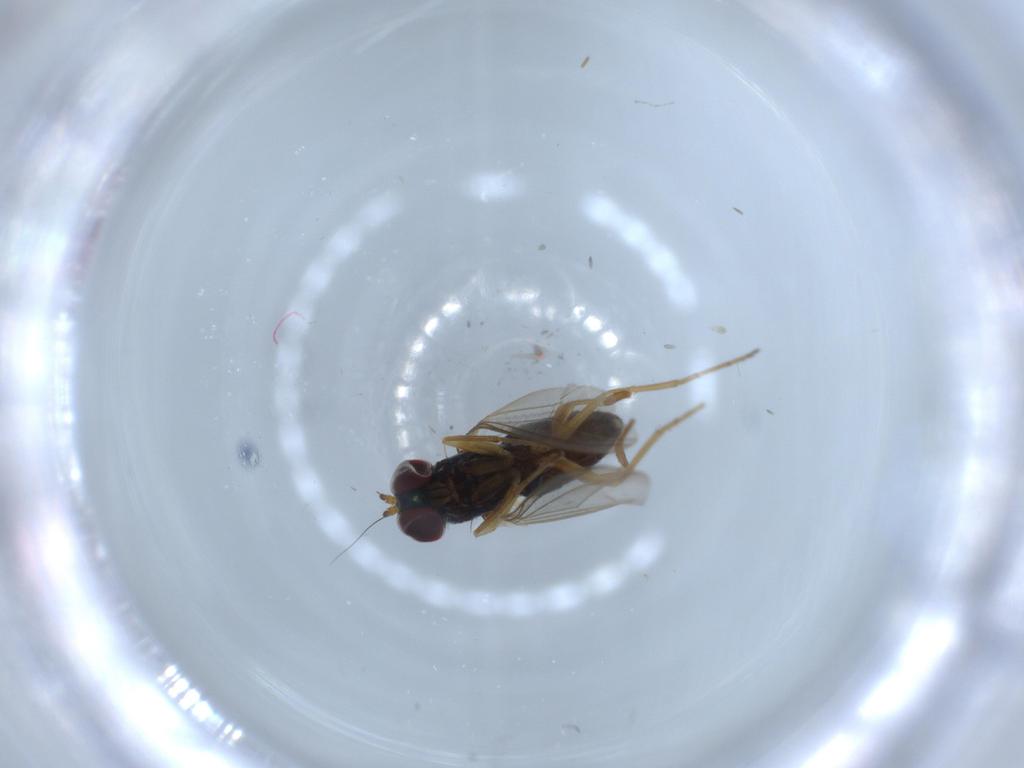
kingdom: Animalia
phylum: Arthropoda
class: Insecta
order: Diptera
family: Dolichopodidae
